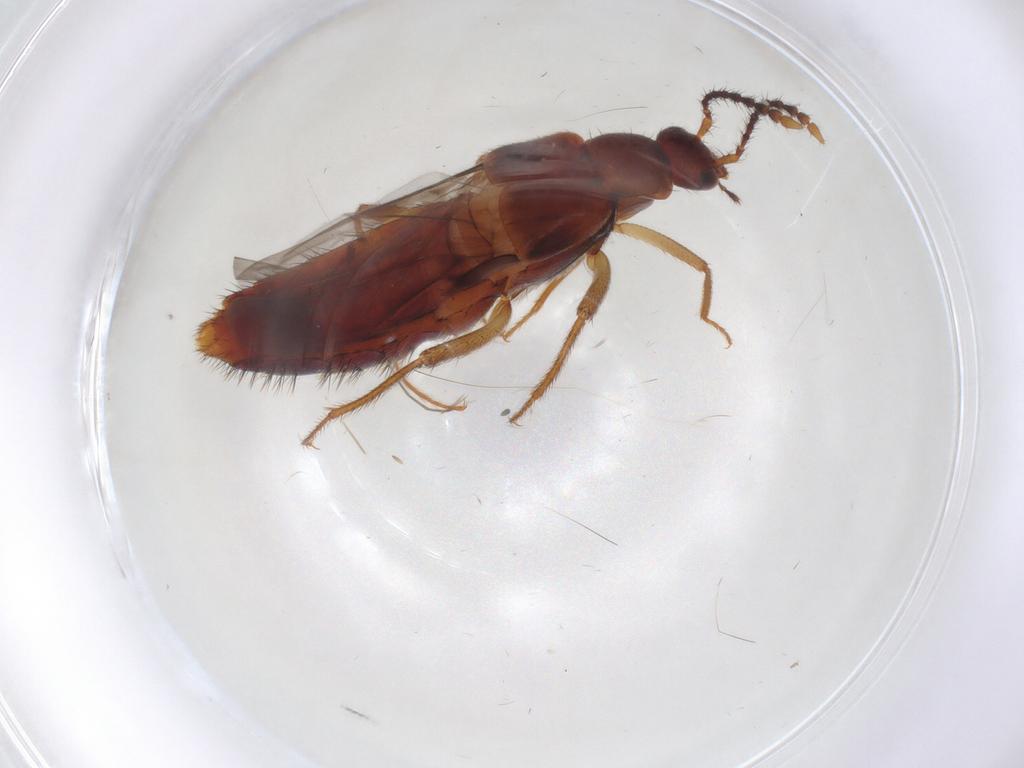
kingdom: Animalia
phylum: Arthropoda
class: Insecta
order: Coleoptera
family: Staphylinidae
